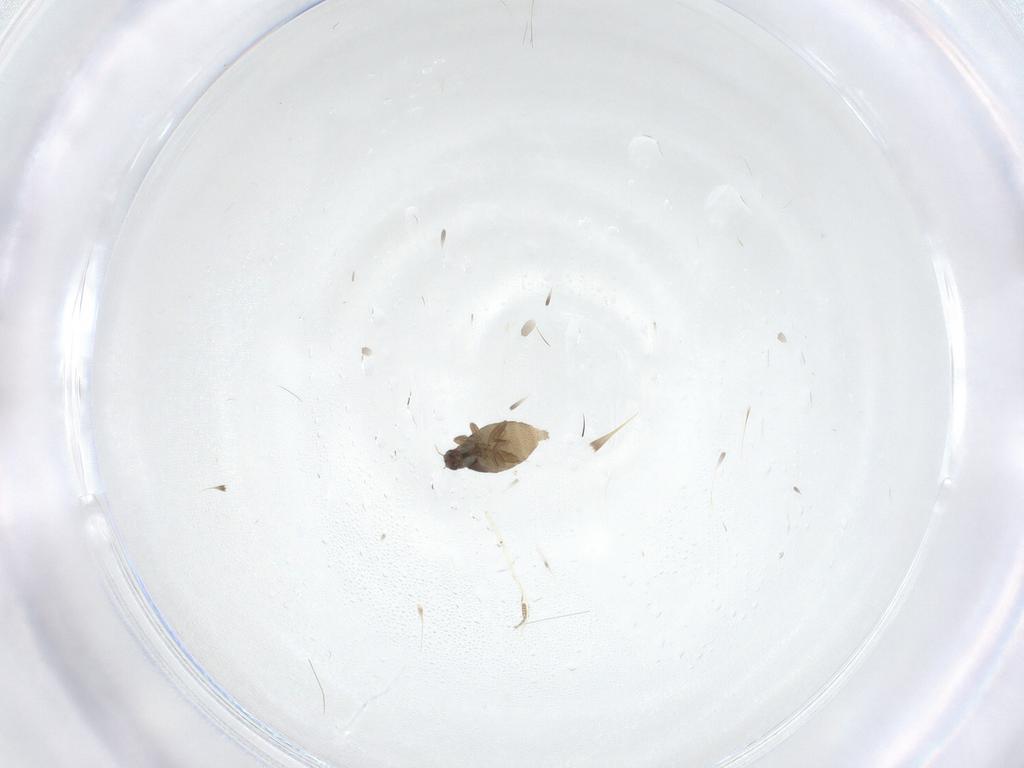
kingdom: Animalia
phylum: Arthropoda
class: Insecta
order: Diptera
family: Phoridae
